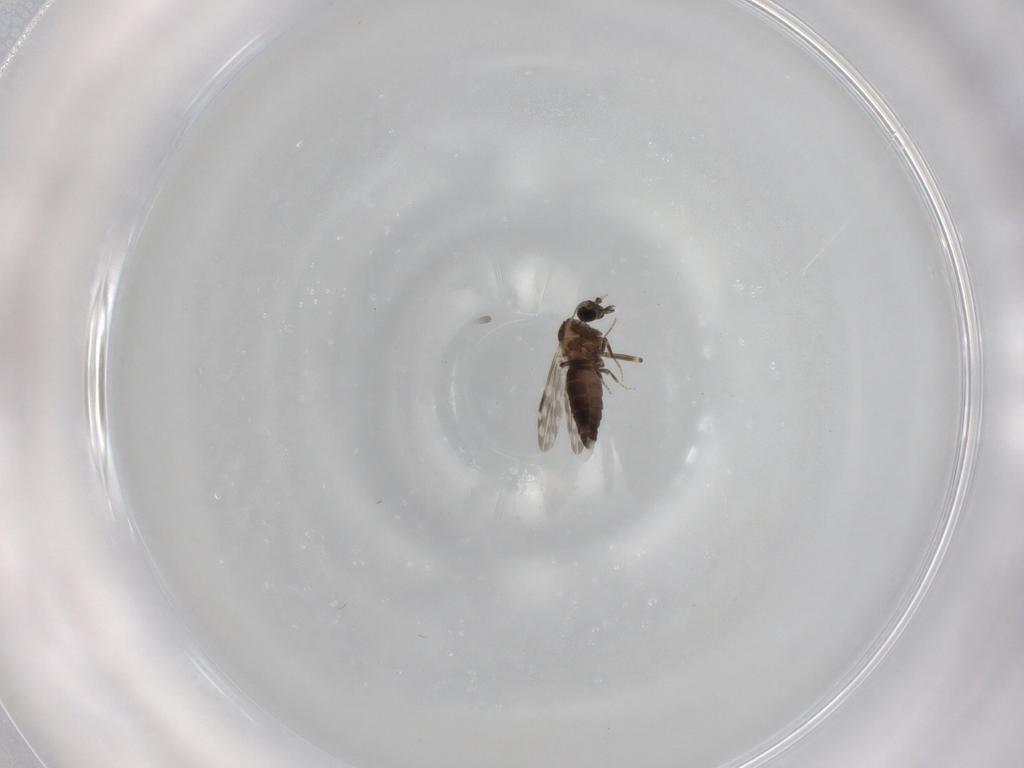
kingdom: Animalia
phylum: Arthropoda
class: Insecta
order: Diptera
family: Ceratopogonidae
